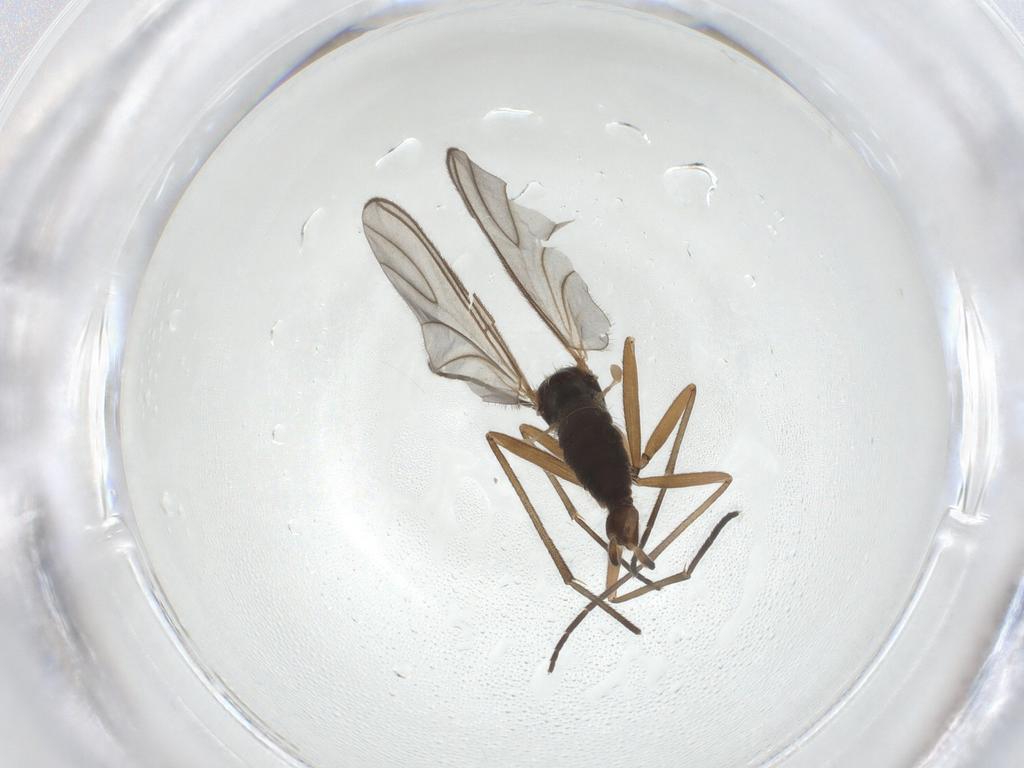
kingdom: Animalia
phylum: Arthropoda
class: Insecta
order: Diptera
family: Sciaridae
